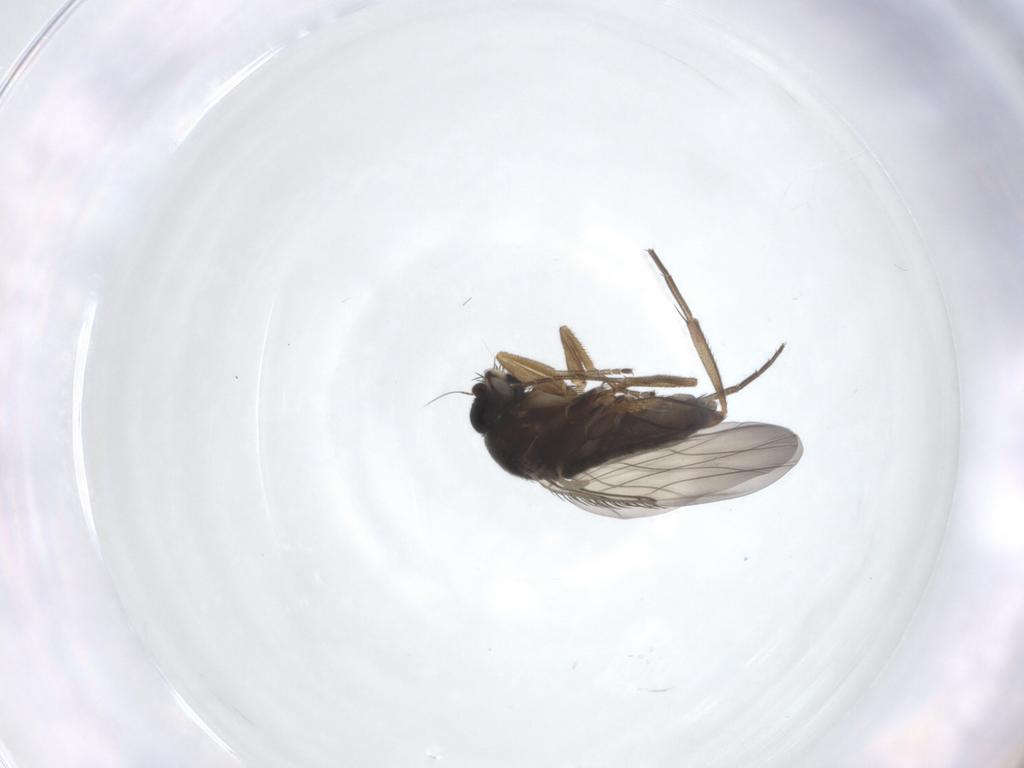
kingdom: Animalia
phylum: Arthropoda
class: Insecta
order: Diptera
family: Phoridae
